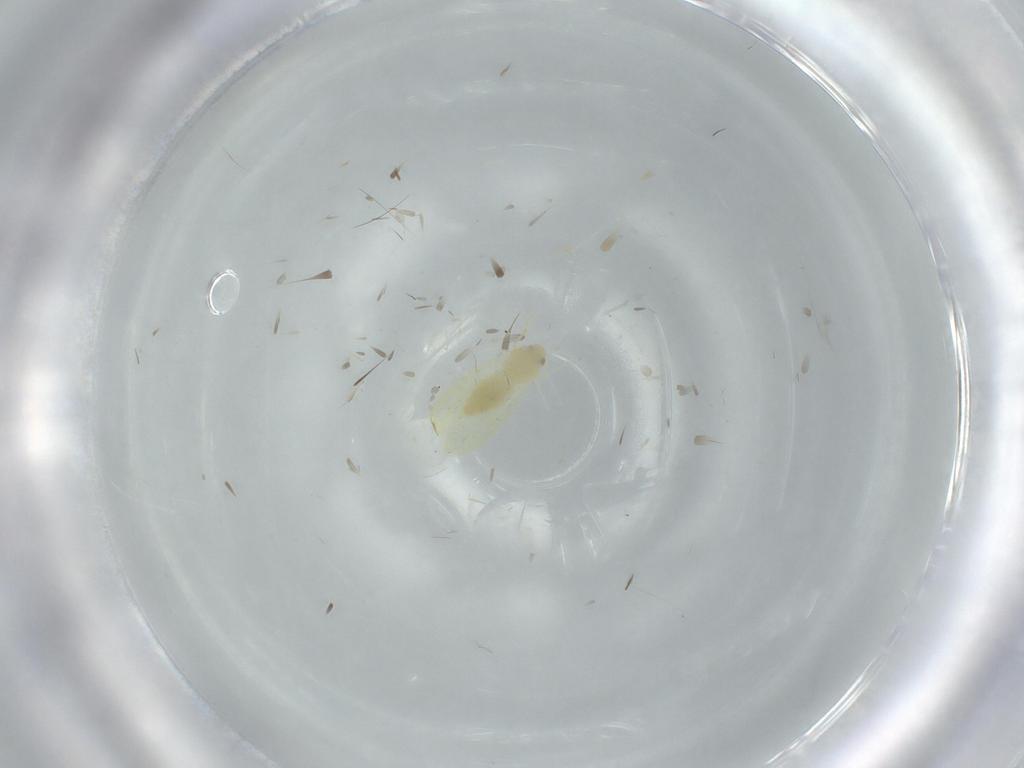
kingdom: Animalia
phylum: Arthropoda
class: Insecta
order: Hemiptera
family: Aleyrodidae
